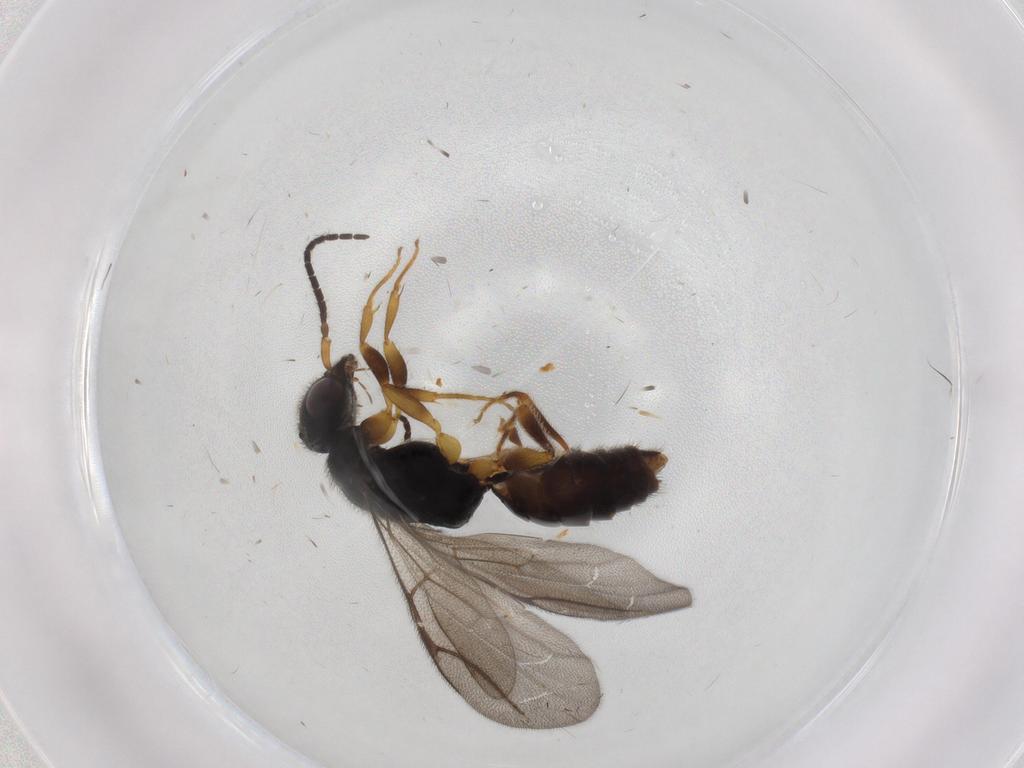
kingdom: Animalia
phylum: Arthropoda
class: Insecta
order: Hymenoptera
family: Bethylidae
